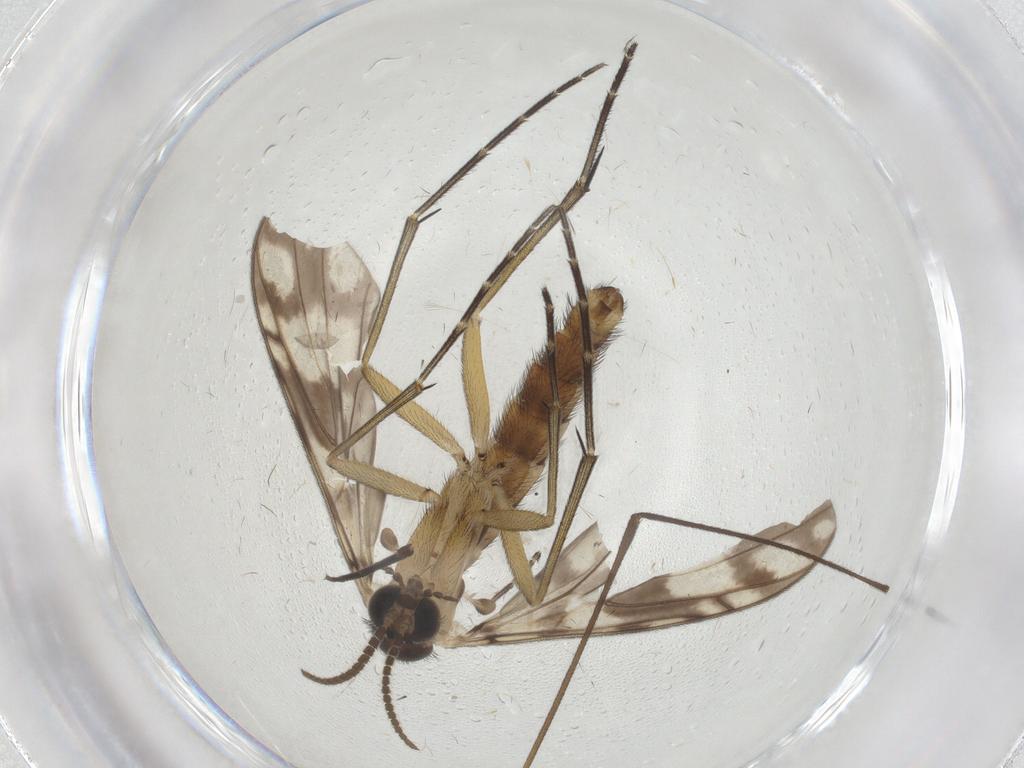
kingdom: Animalia
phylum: Arthropoda
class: Insecta
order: Diptera
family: Keroplatidae
